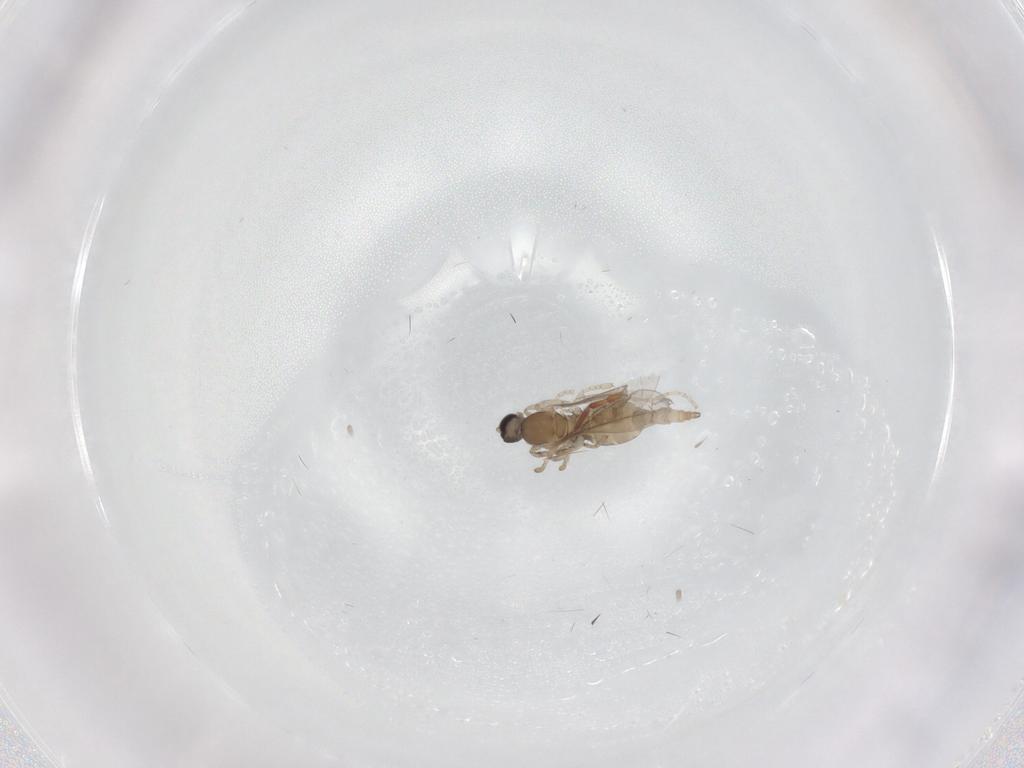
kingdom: Animalia
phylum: Arthropoda
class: Insecta
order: Diptera
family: Cecidomyiidae
